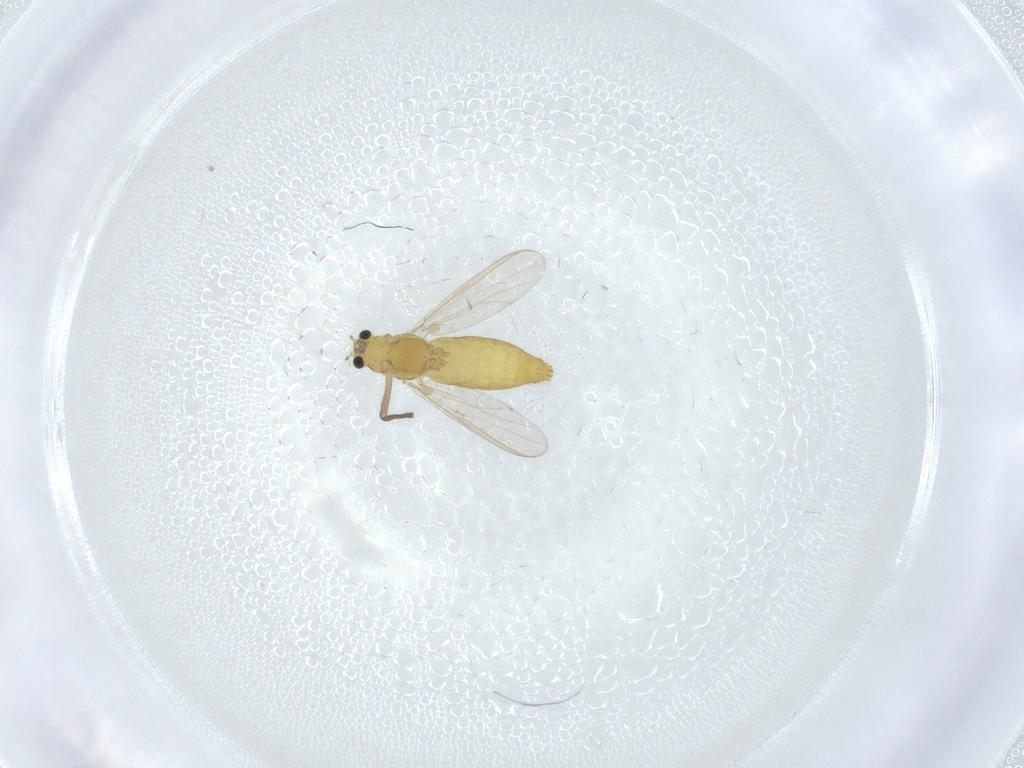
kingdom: Animalia
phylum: Arthropoda
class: Insecta
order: Diptera
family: Chironomidae
